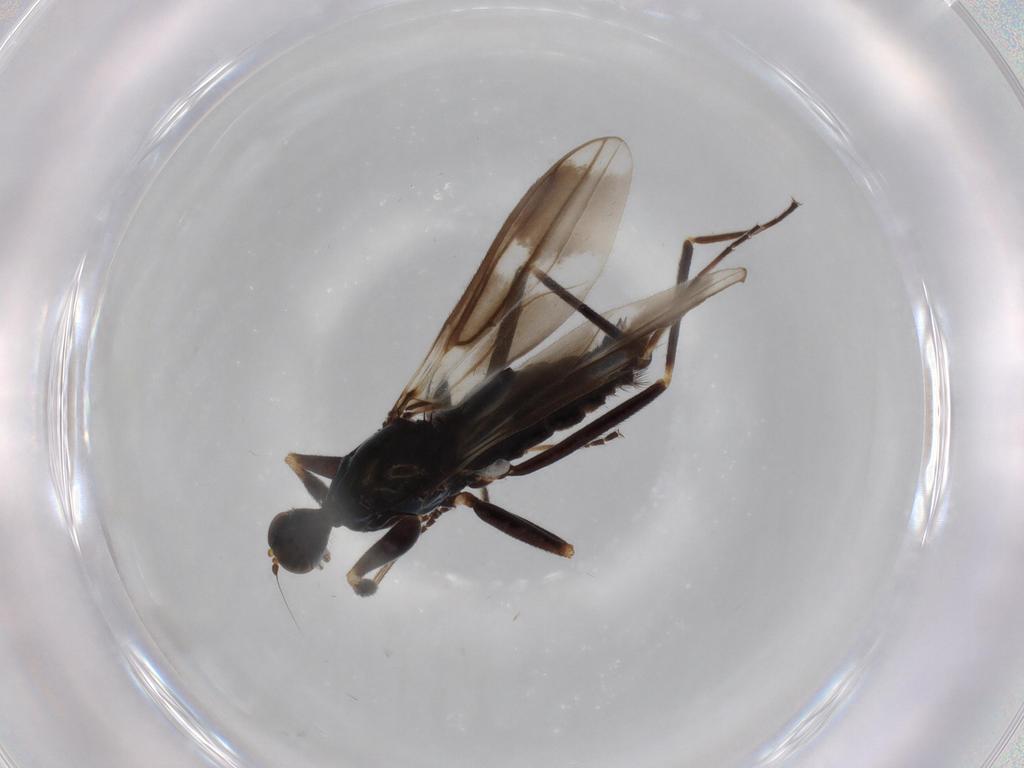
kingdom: Animalia
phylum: Arthropoda
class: Insecta
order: Diptera
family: Hybotidae
